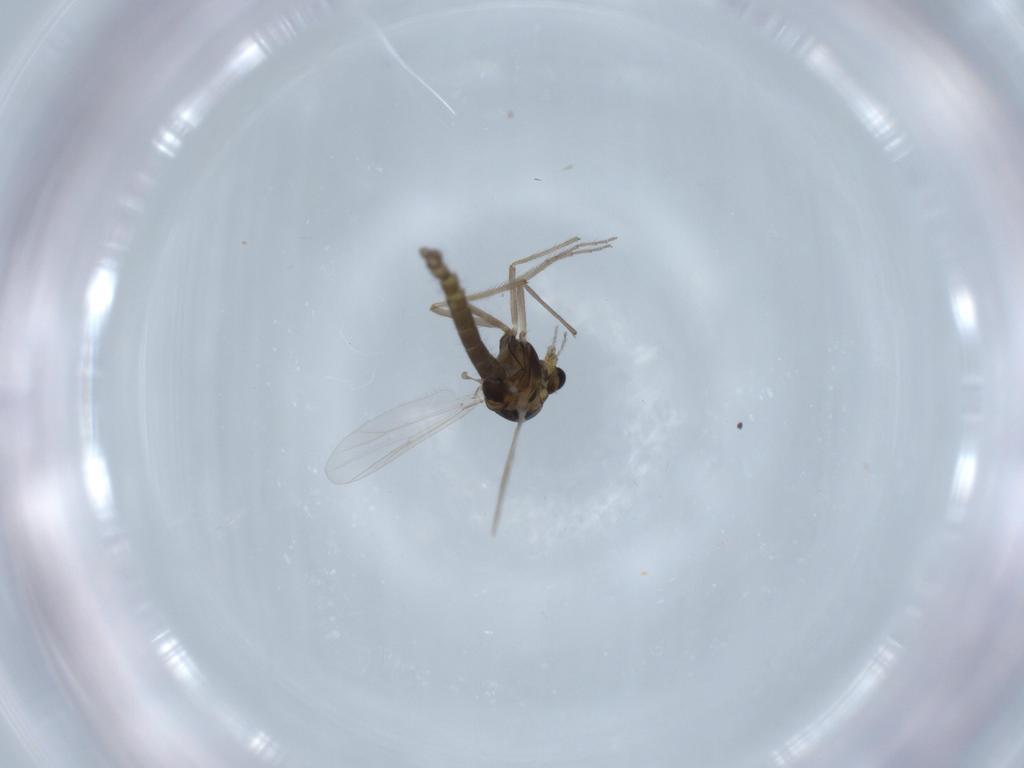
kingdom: Animalia
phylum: Arthropoda
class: Insecta
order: Diptera
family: Chironomidae
